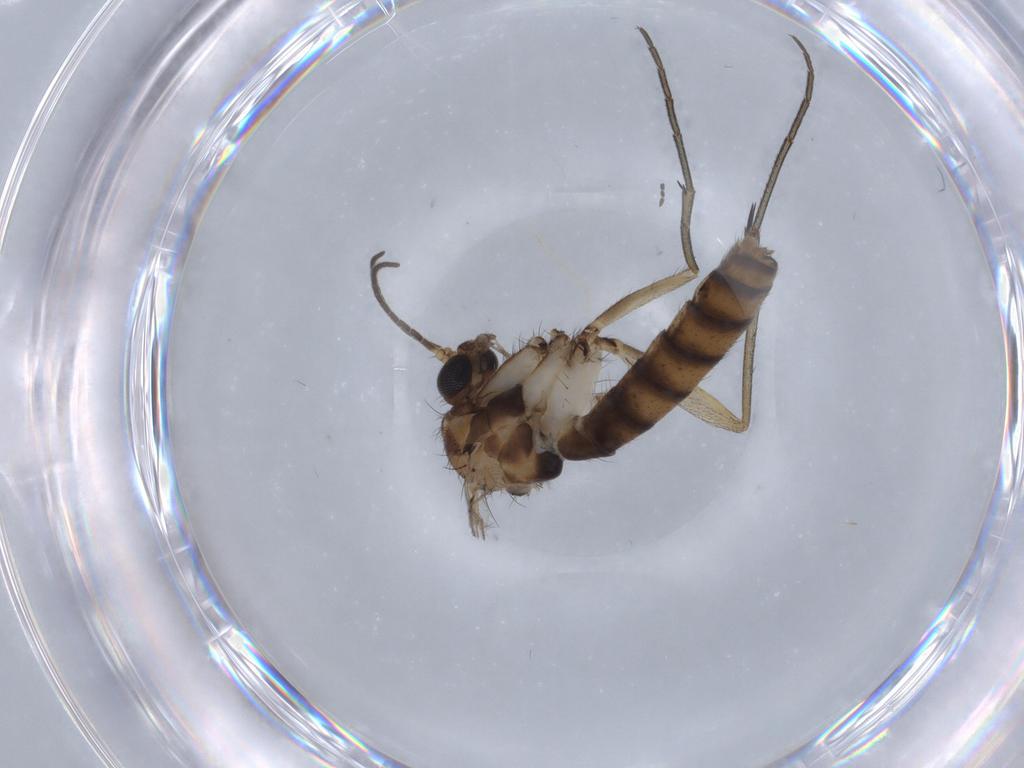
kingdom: Animalia
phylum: Arthropoda
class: Insecta
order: Diptera
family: Mycetophilidae
